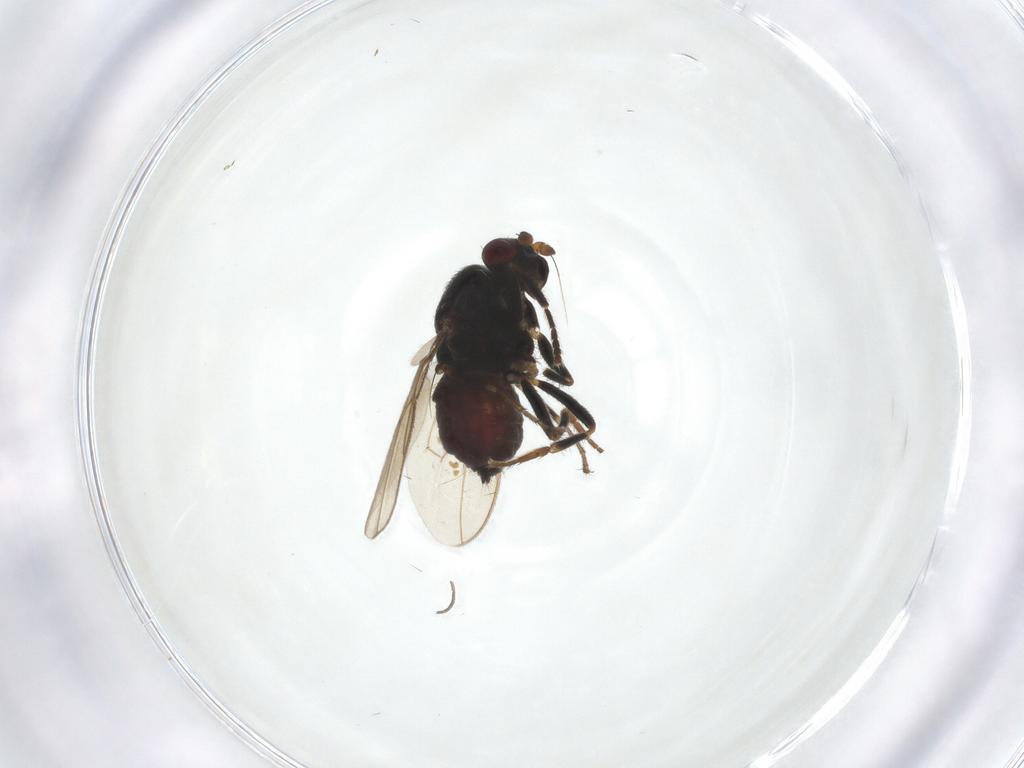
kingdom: Animalia
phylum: Arthropoda
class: Insecta
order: Diptera
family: Sphaeroceridae
